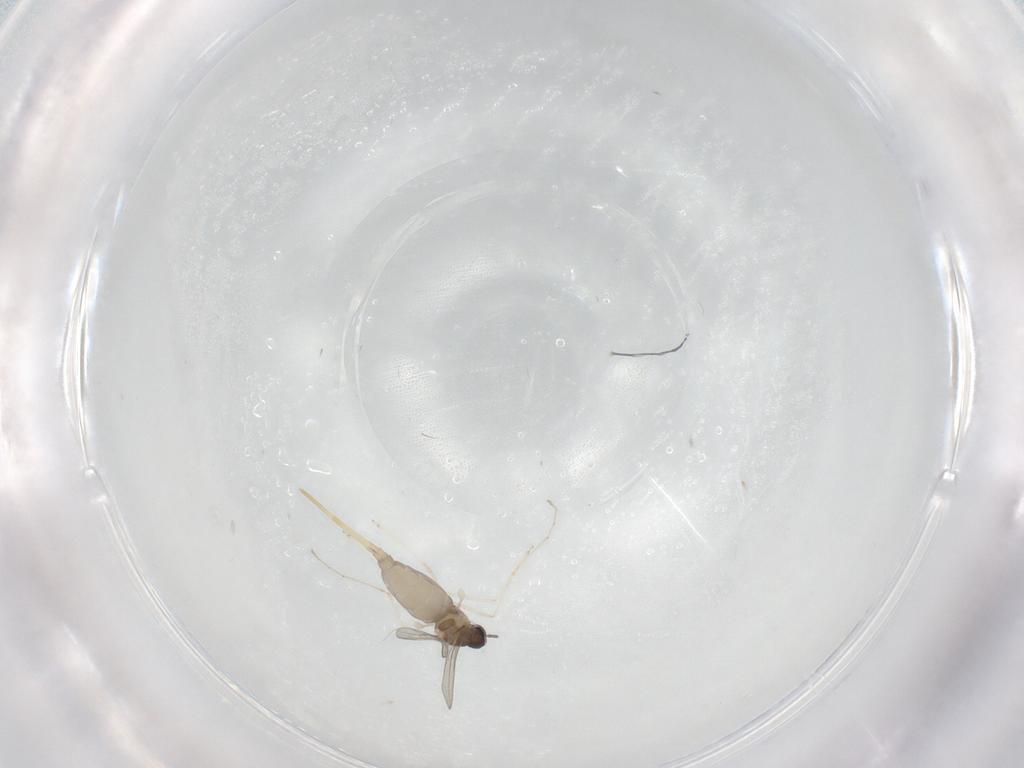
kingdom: Animalia
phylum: Arthropoda
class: Insecta
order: Diptera
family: Cecidomyiidae
